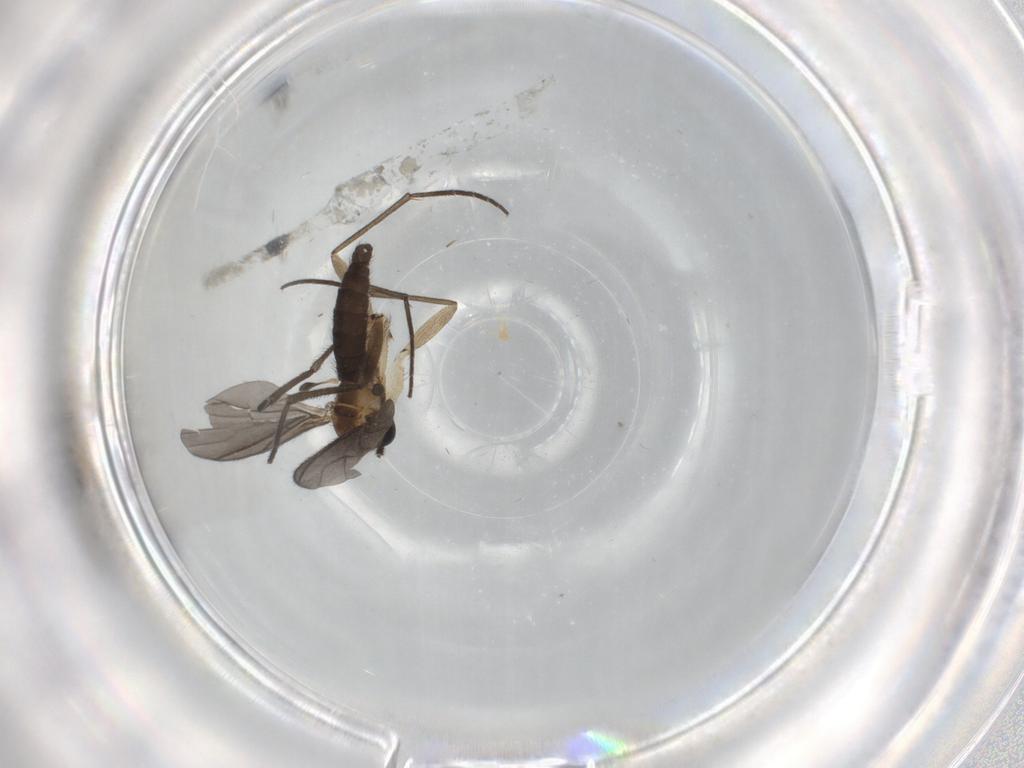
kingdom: Animalia
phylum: Arthropoda
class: Insecta
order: Diptera
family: Sciaridae
